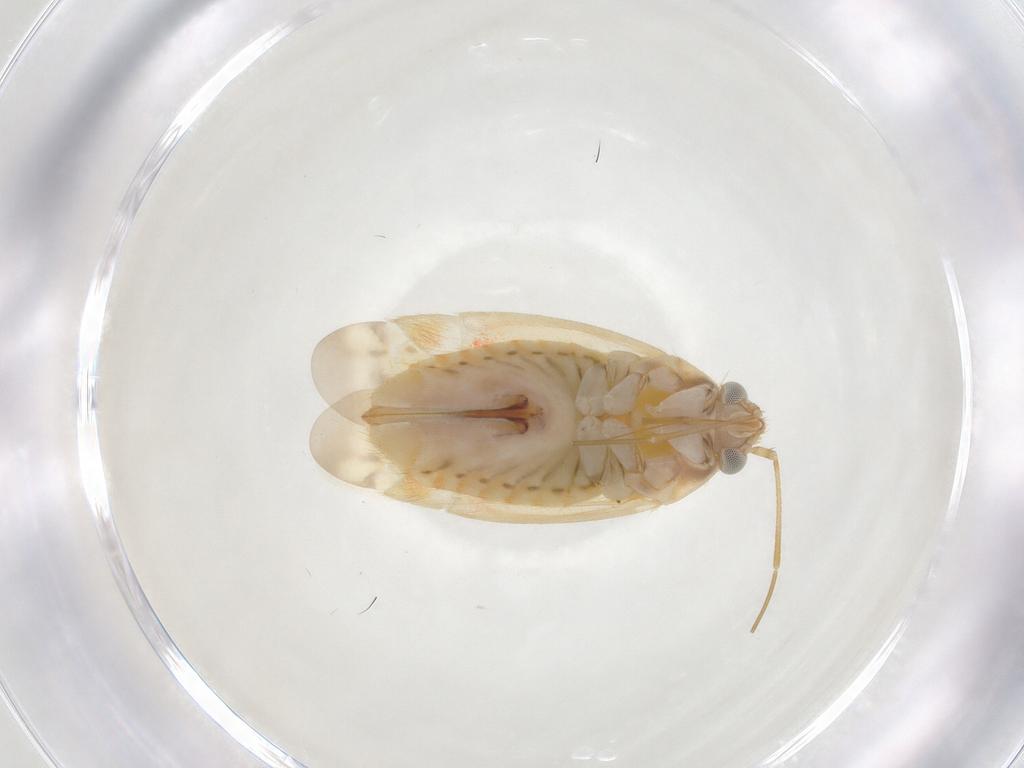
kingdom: Animalia
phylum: Arthropoda
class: Insecta
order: Hemiptera
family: Miridae
